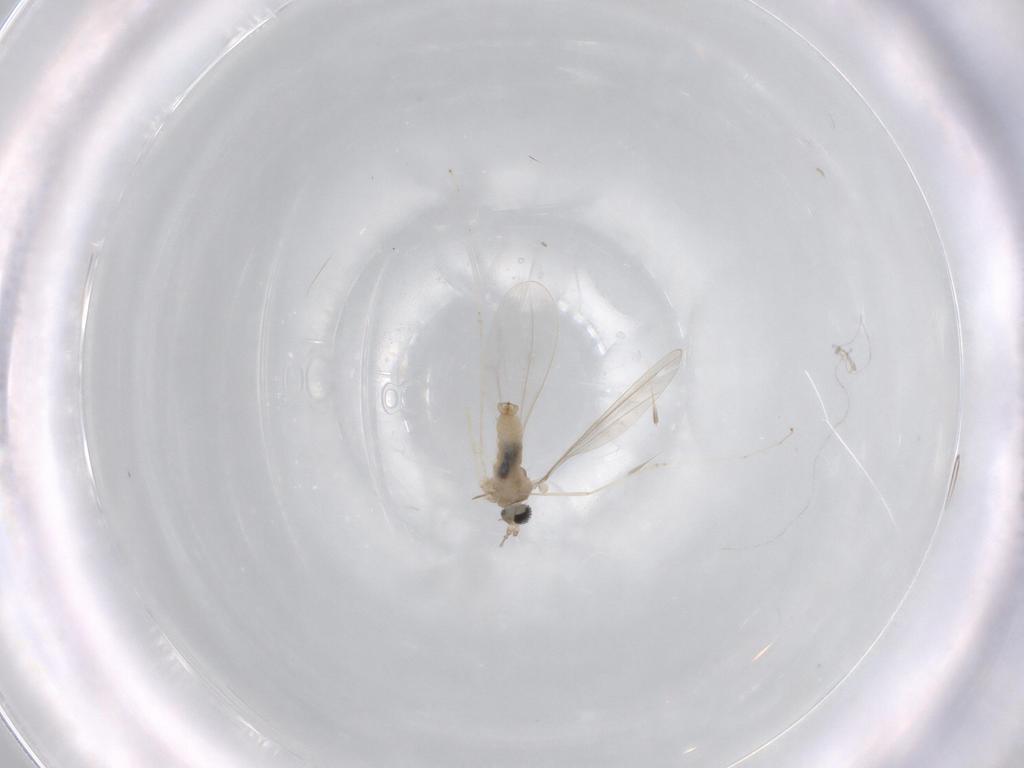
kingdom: Animalia
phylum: Arthropoda
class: Insecta
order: Diptera
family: Cecidomyiidae
